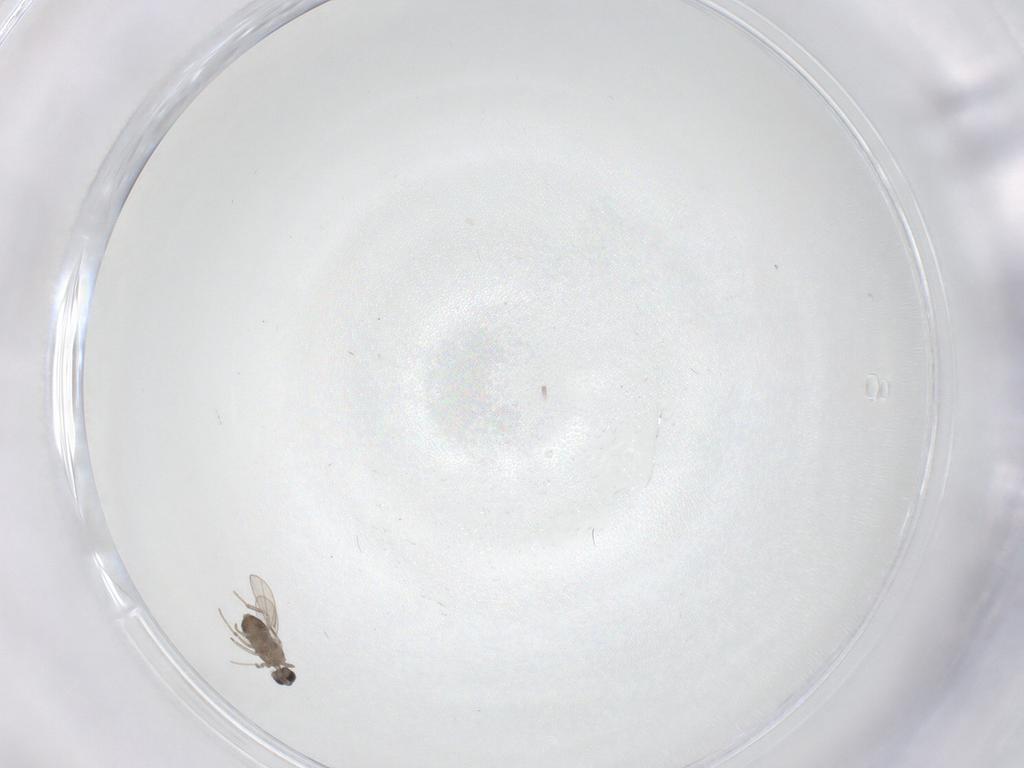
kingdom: Animalia
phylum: Arthropoda
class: Insecta
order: Diptera
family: Cecidomyiidae
